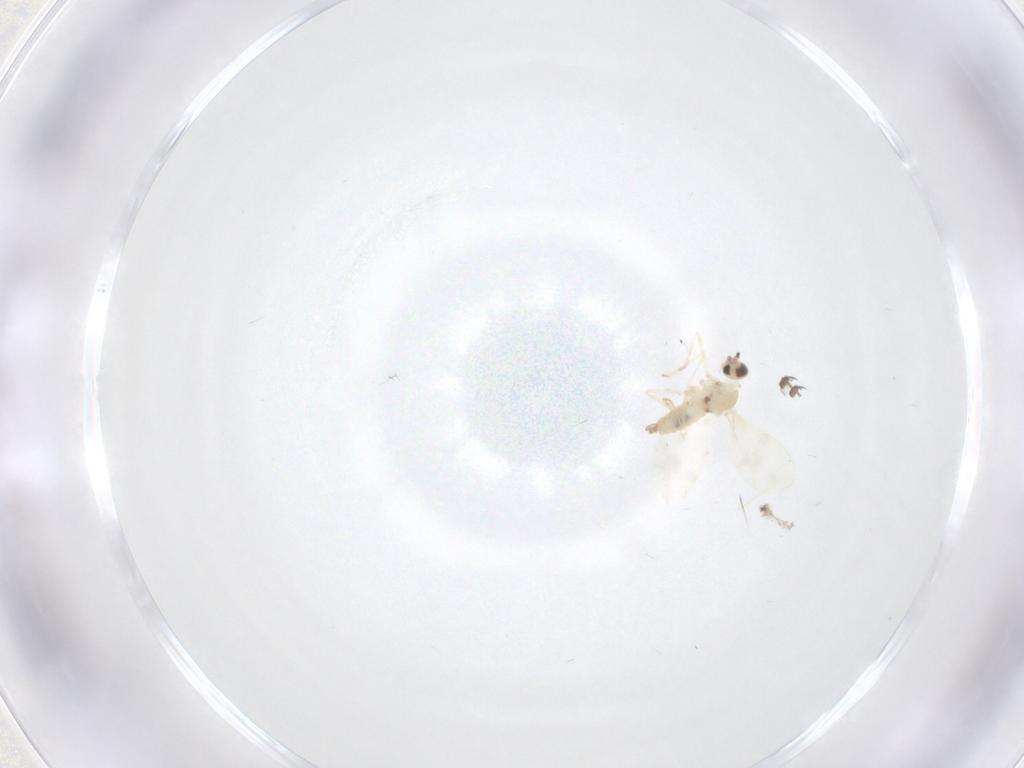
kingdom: Animalia
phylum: Arthropoda
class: Insecta
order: Diptera
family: Psychodidae
